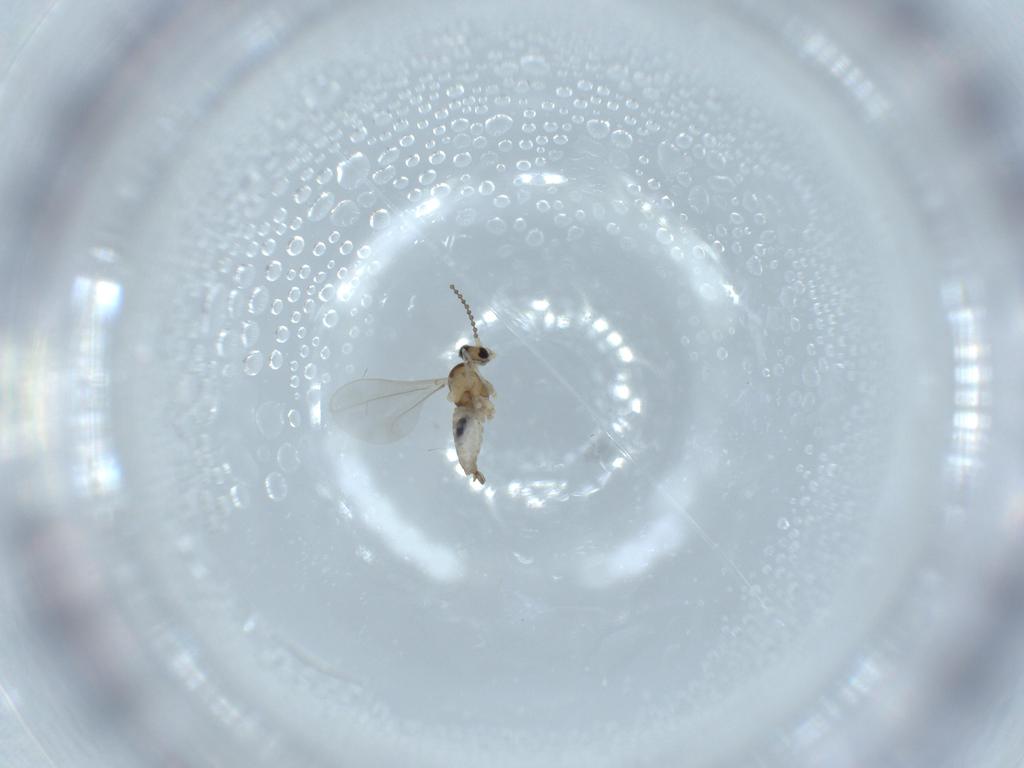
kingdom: Animalia
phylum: Arthropoda
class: Insecta
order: Diptera
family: Cecidomyiidae
